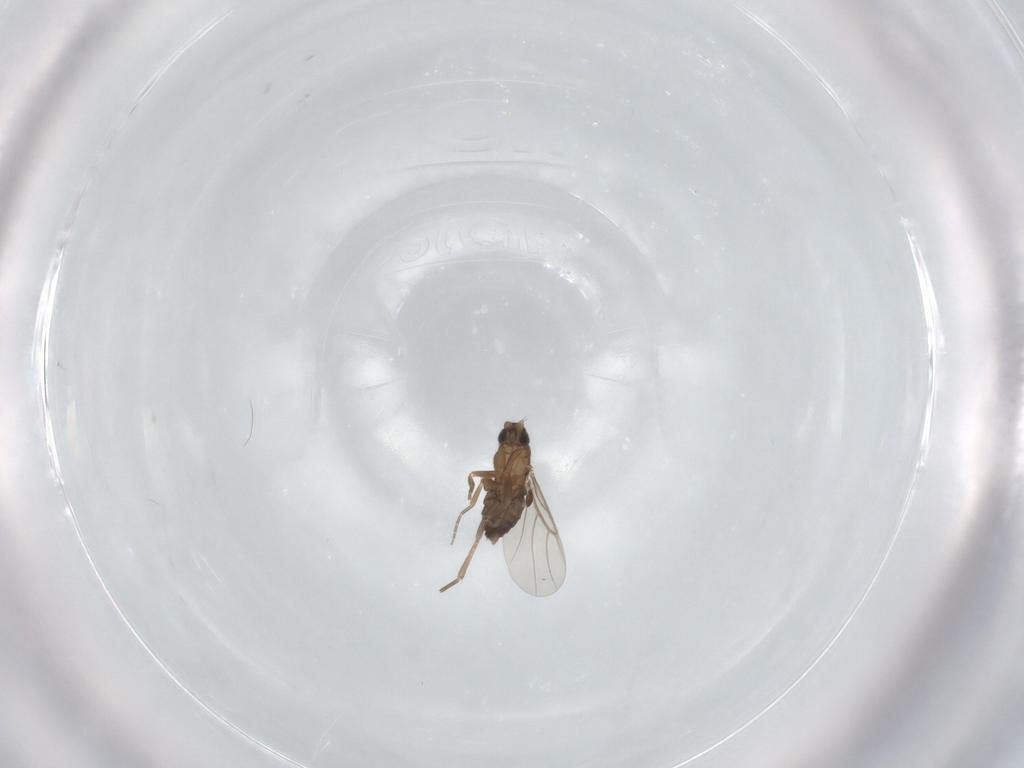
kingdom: Animalia
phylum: Arthropoda
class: Insecta
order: Diptera
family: Phoridae
